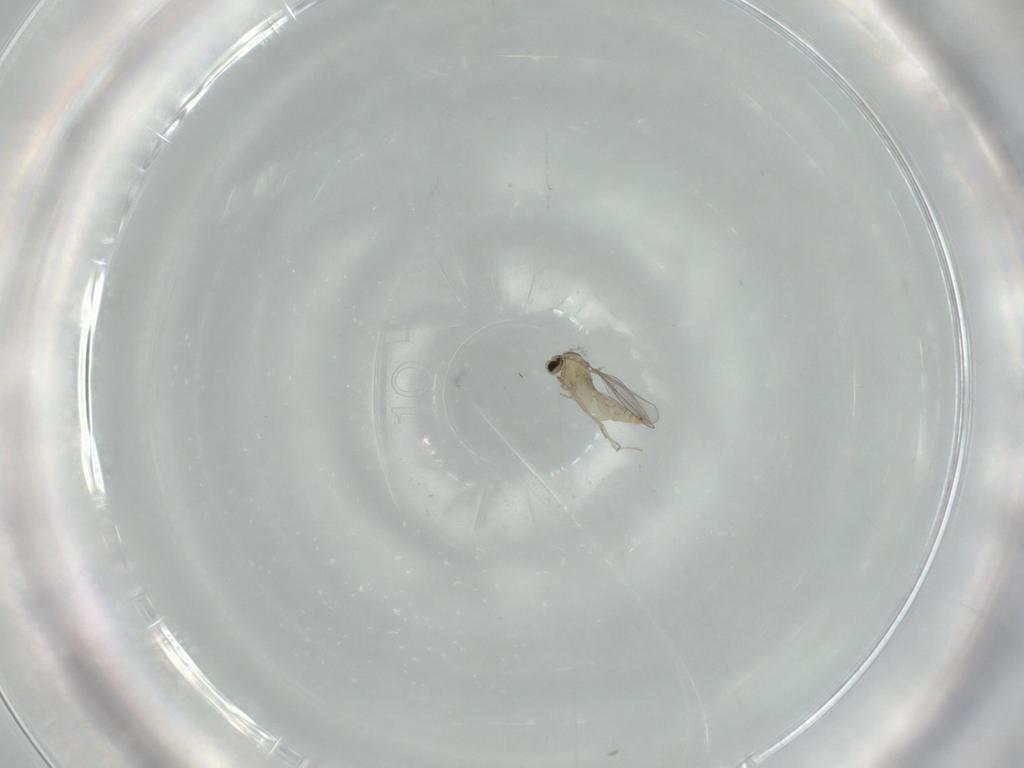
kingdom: Animalia
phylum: Arthropoda
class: Insecta
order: Diptera
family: Cecidomyiidae
